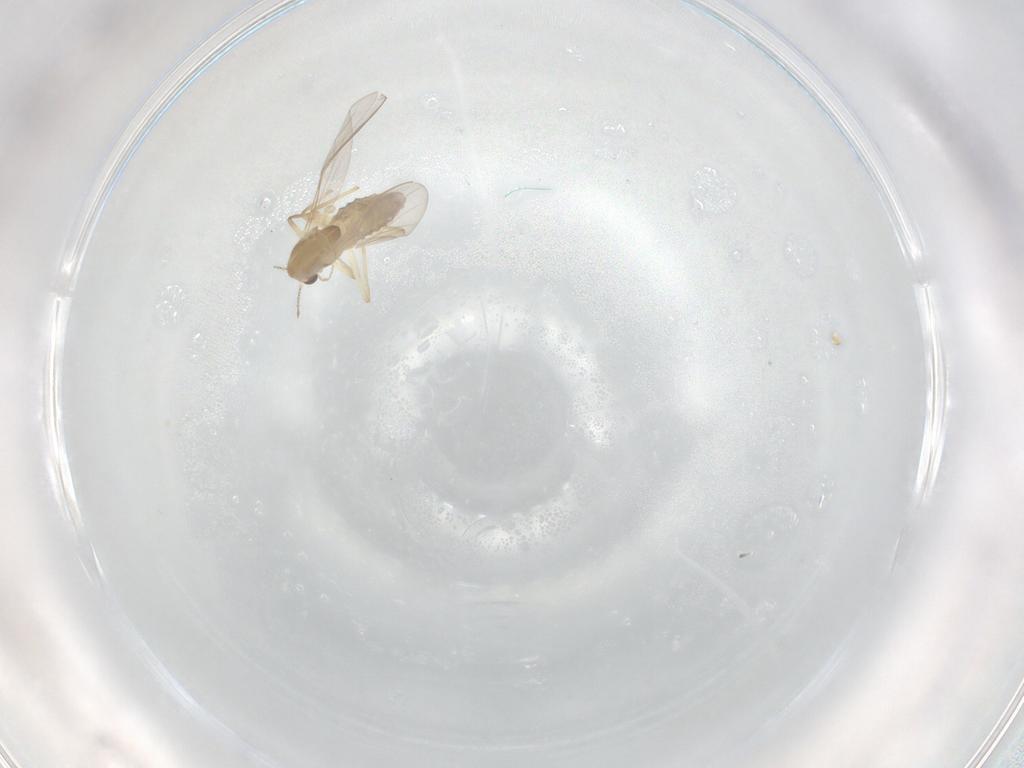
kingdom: Animalia
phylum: Arthropoda
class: Insecta
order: Diptera
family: Chironomidae
